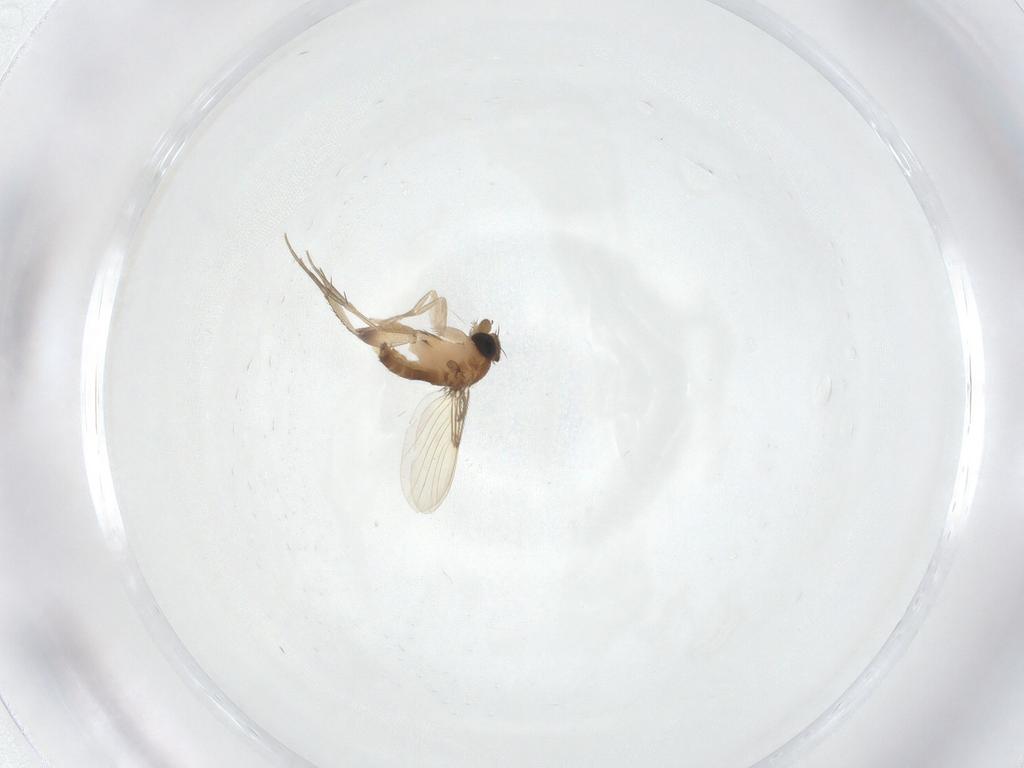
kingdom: Animalia
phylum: Arthropoda
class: Insecta
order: Diptera
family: Phoridae
